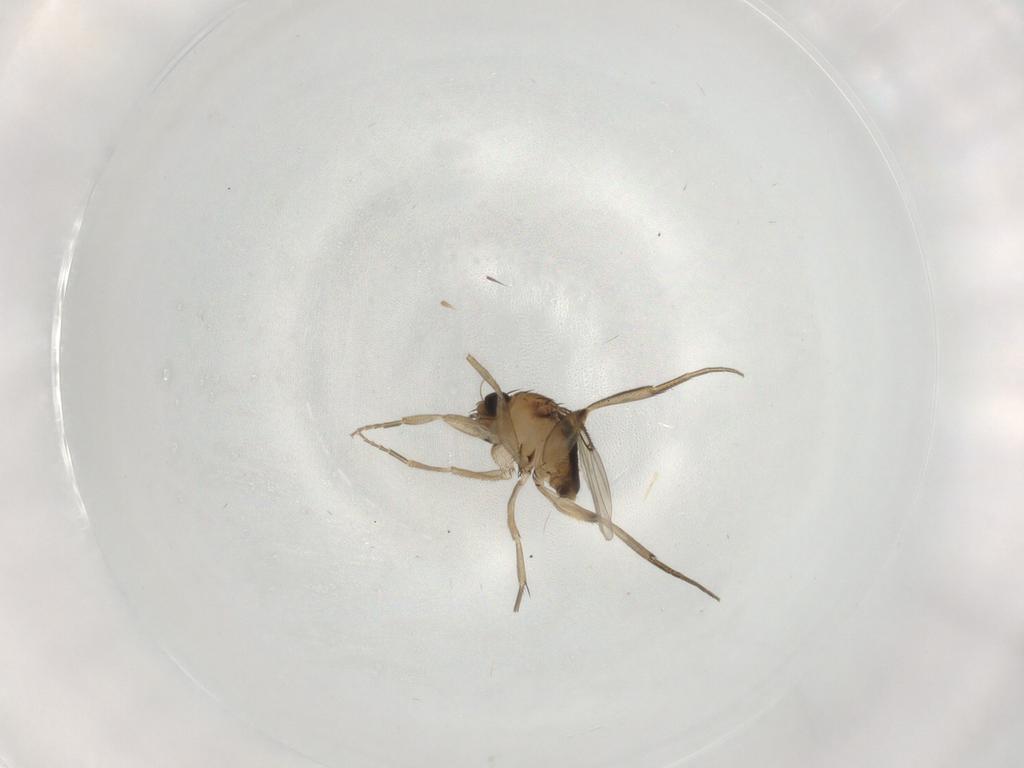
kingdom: Animalia
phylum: Arthropoda
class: Insecta
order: Diptera
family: Phoridae
